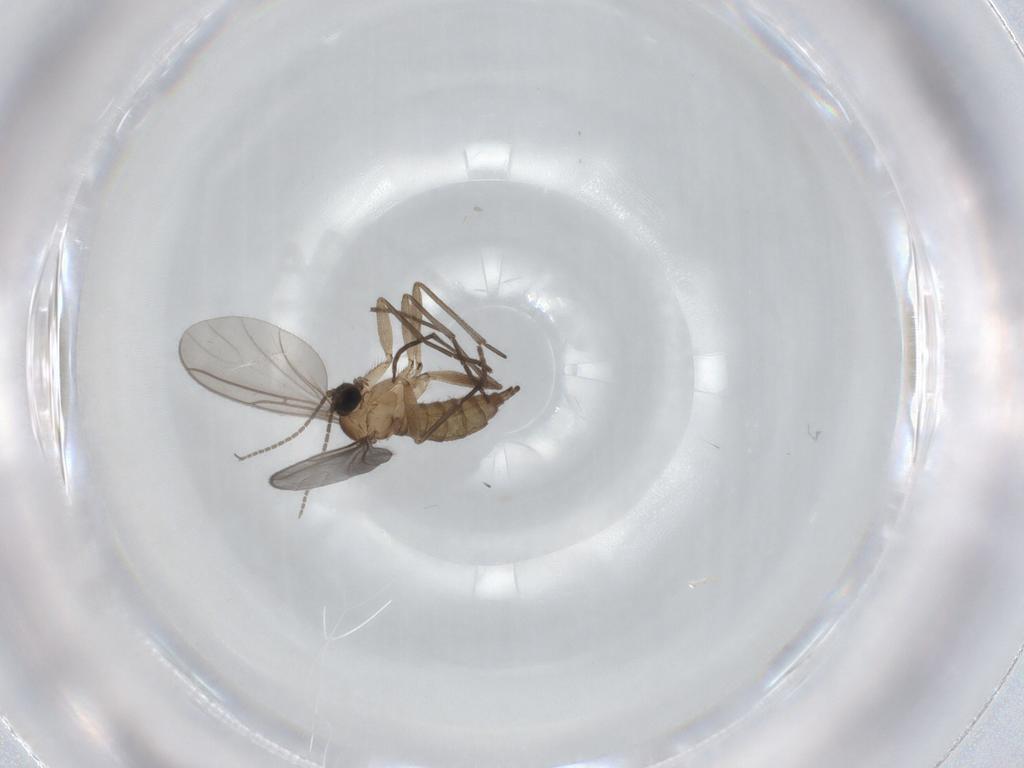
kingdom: Animalia
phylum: Arthropoda
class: Insecta
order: Diptera
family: Sciaridae
